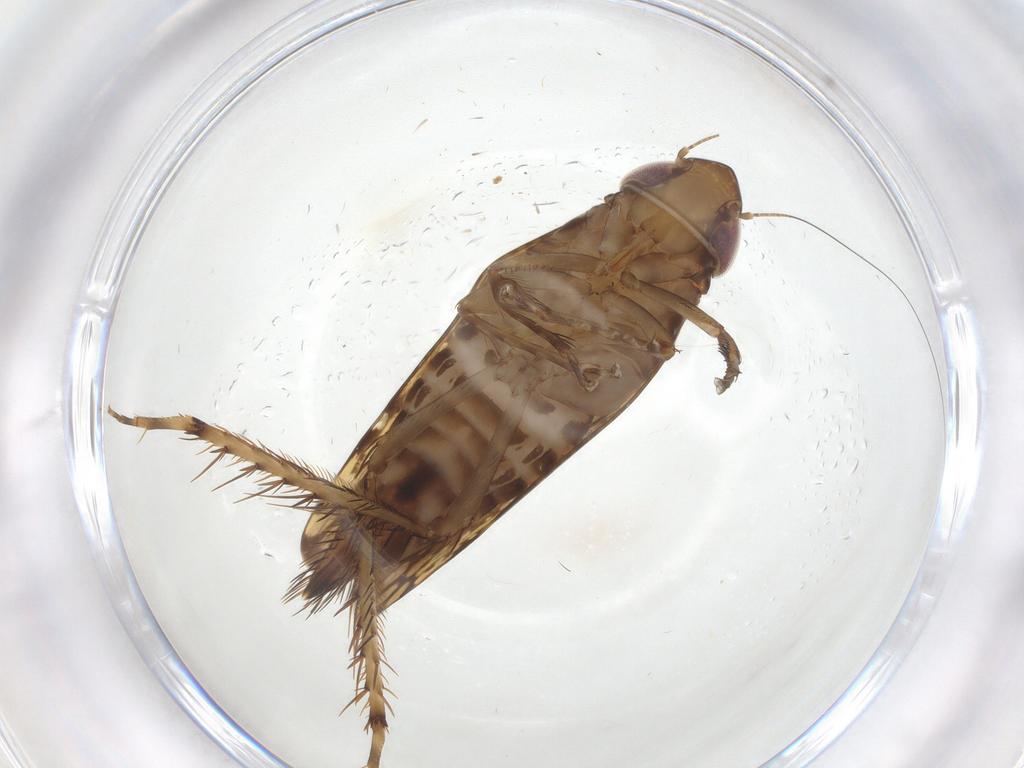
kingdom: Animalia
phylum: Arthropoda
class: Insecta
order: Hemiptera
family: Cicadellidae
